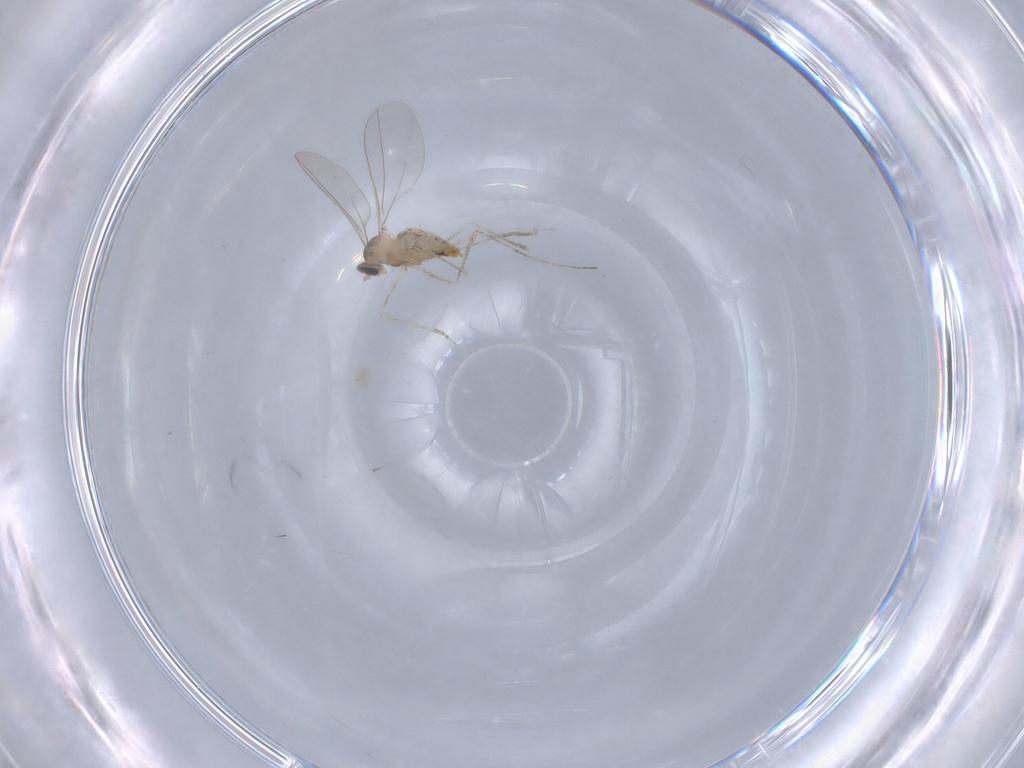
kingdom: Animalia
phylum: Arthropoda
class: Insecta
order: Diptera
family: Cecidomyiidae
